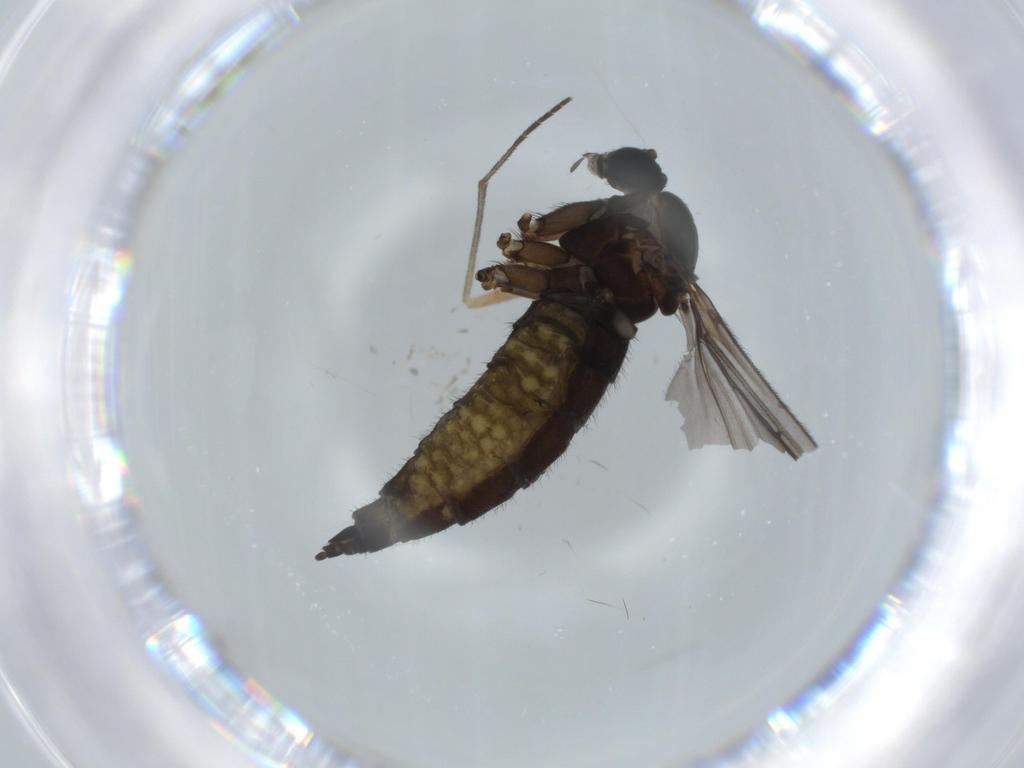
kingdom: Animalia
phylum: Arthropoda
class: Insecta
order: Diptera
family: Sciaridae
